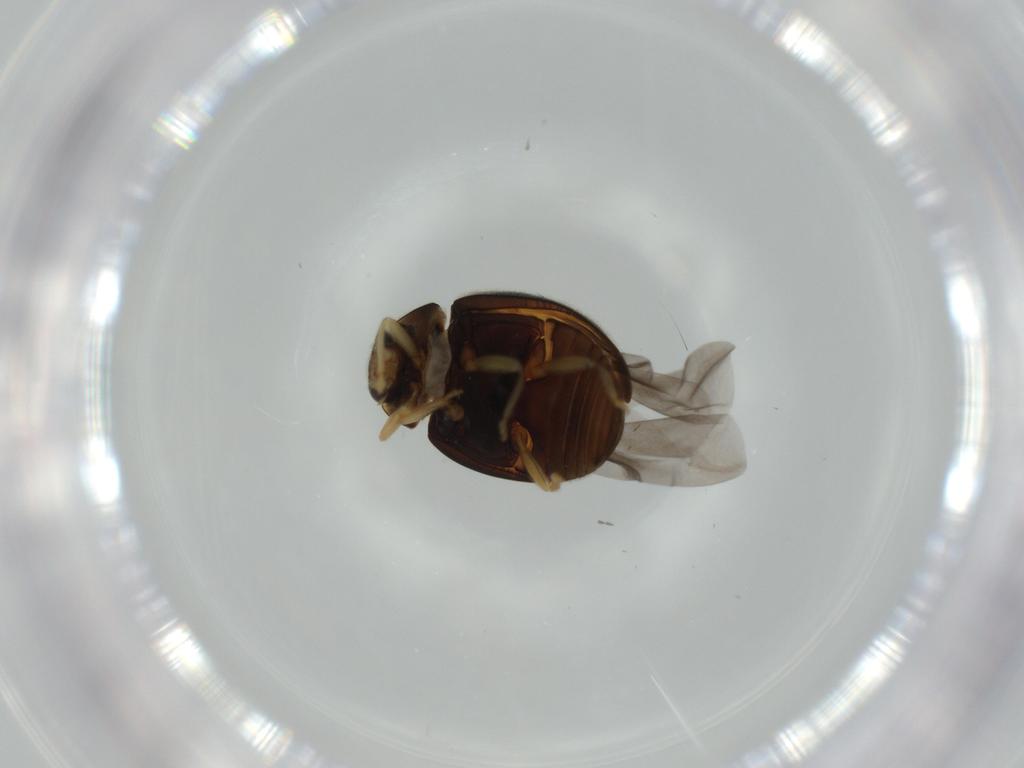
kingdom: Animalia
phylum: Arthropoda
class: Insecta
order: Coleoptera
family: Coccinellidae
